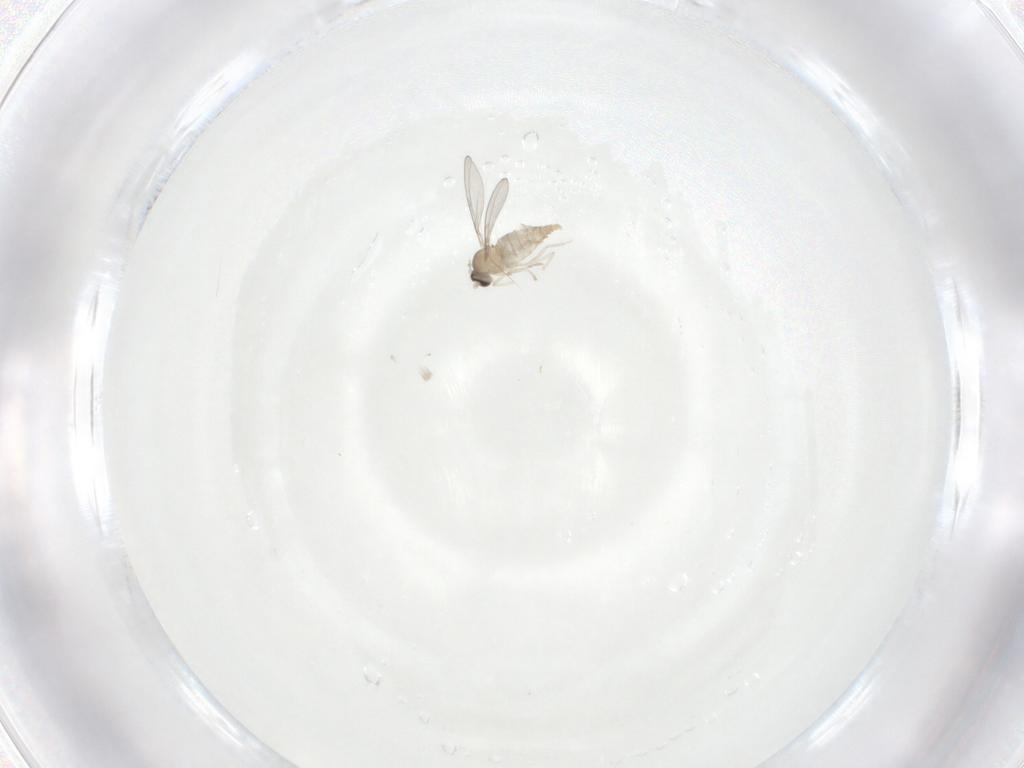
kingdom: Animalia
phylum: Arthropoda
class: Insecta
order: Diptera
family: Cecidomyiidae
